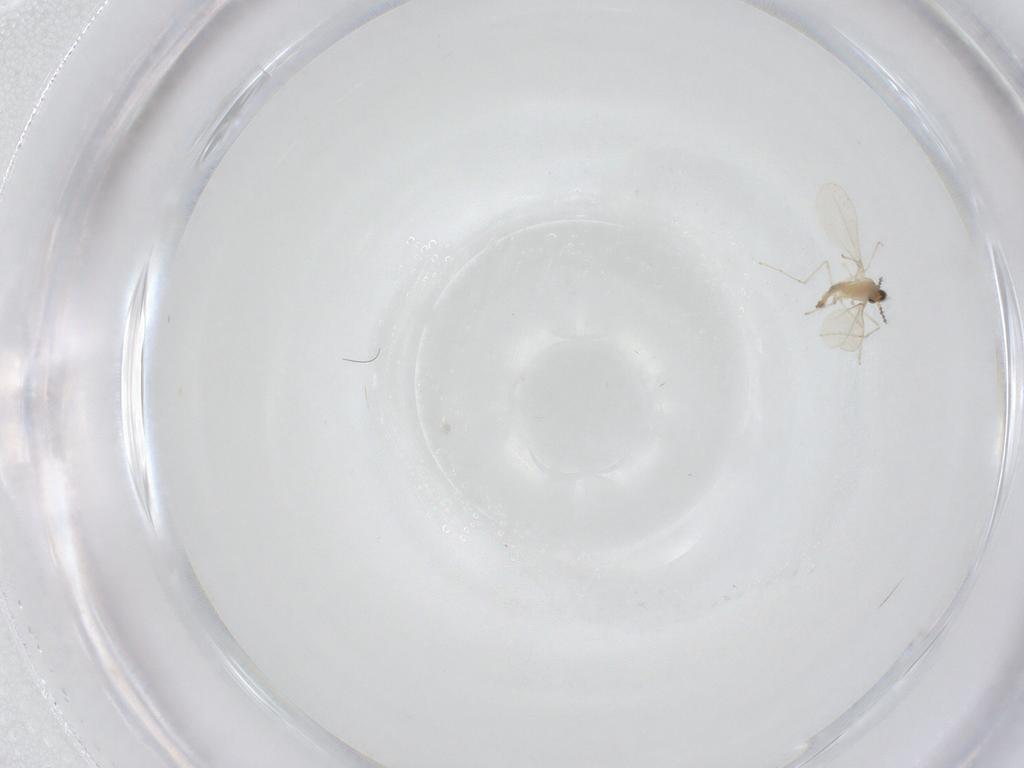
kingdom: Animalia
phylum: Arthropoda
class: Insecta
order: Diptera
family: Cecidomyiidae
